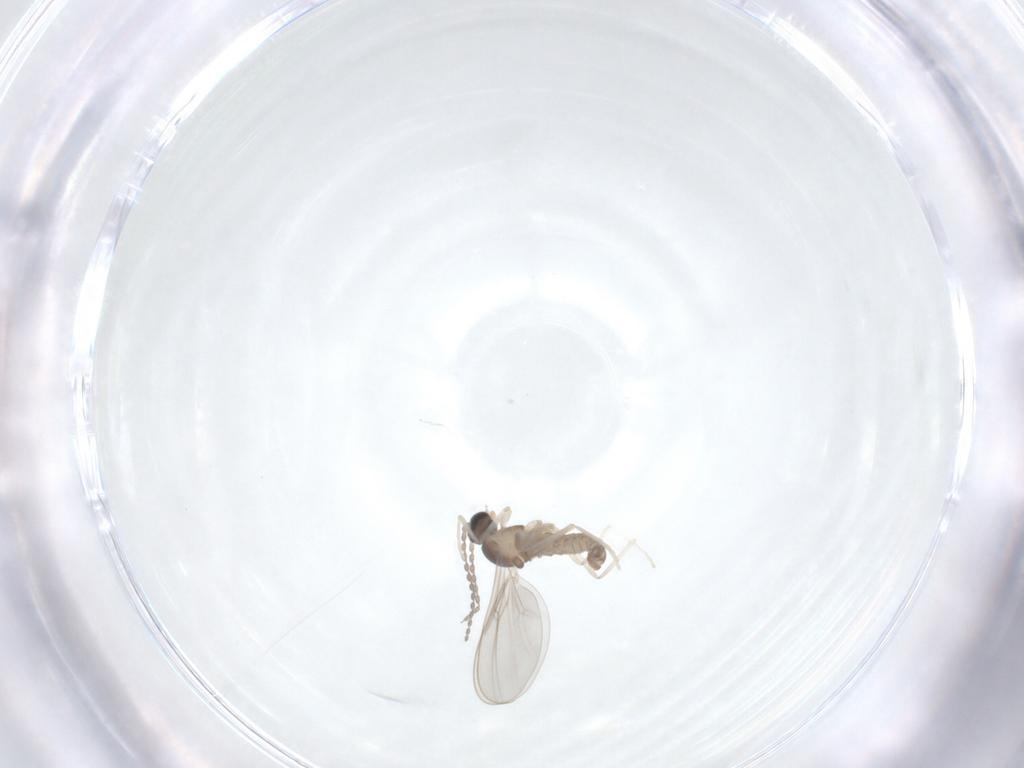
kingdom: Animalia
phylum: Arthropoda
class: Insecta
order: Diptera
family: Cecidomyiidae
